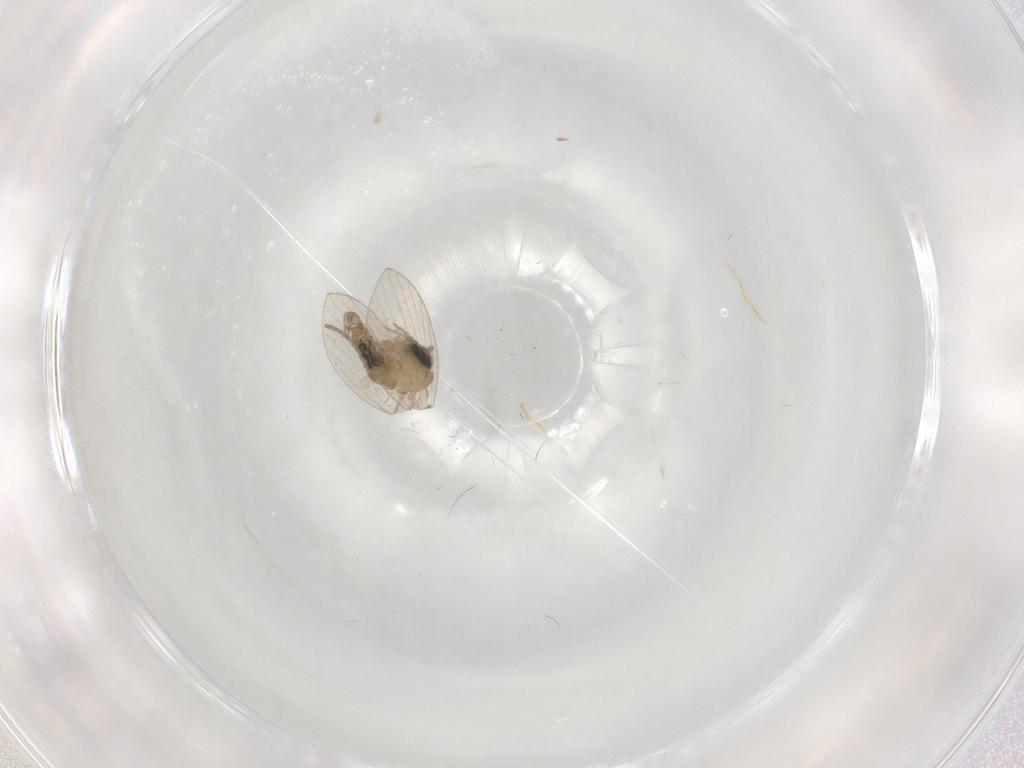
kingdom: Animalia
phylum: Arthropoda
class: Insecta
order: Diptera
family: Psychodidae
